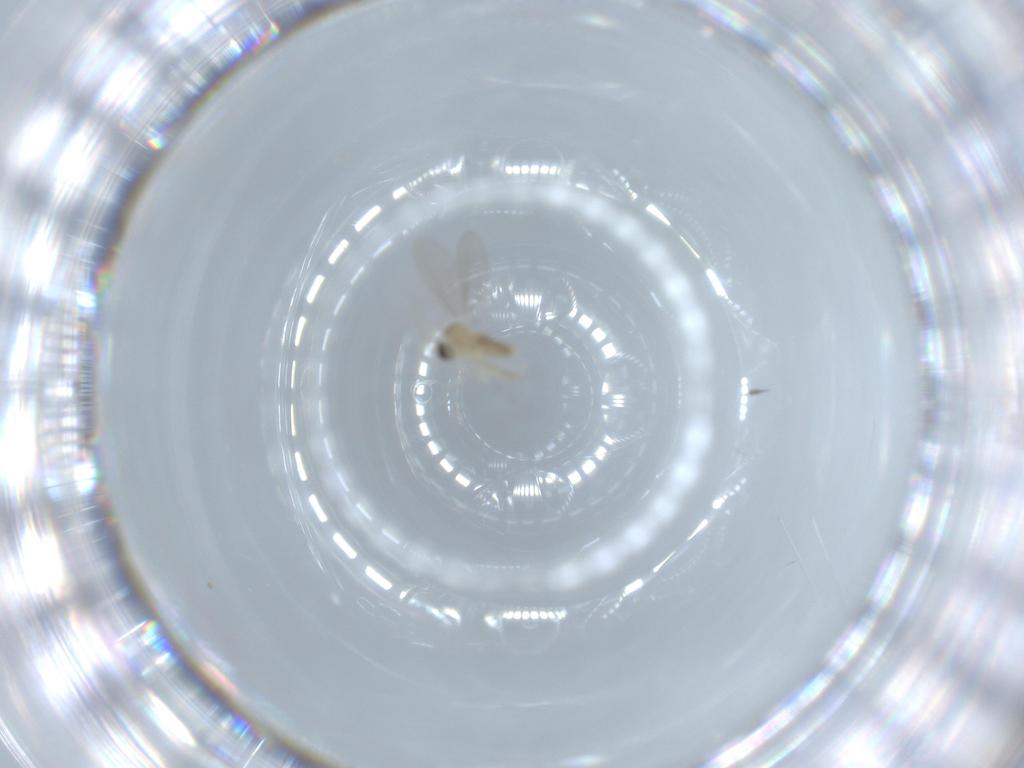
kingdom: Animalia
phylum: Arthropoda
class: Insecta
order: Diptera
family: Cecidomyiidae
